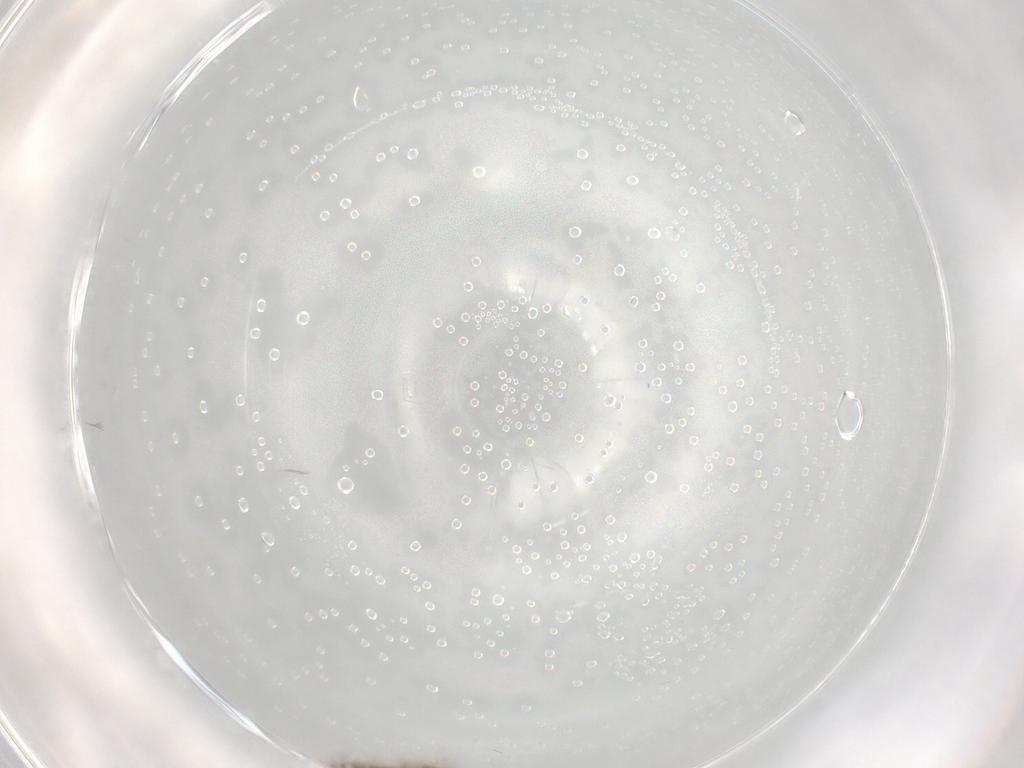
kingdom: Animalia
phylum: Arthropoda
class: Insecta
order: Diptera
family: Cecidomyiidae
